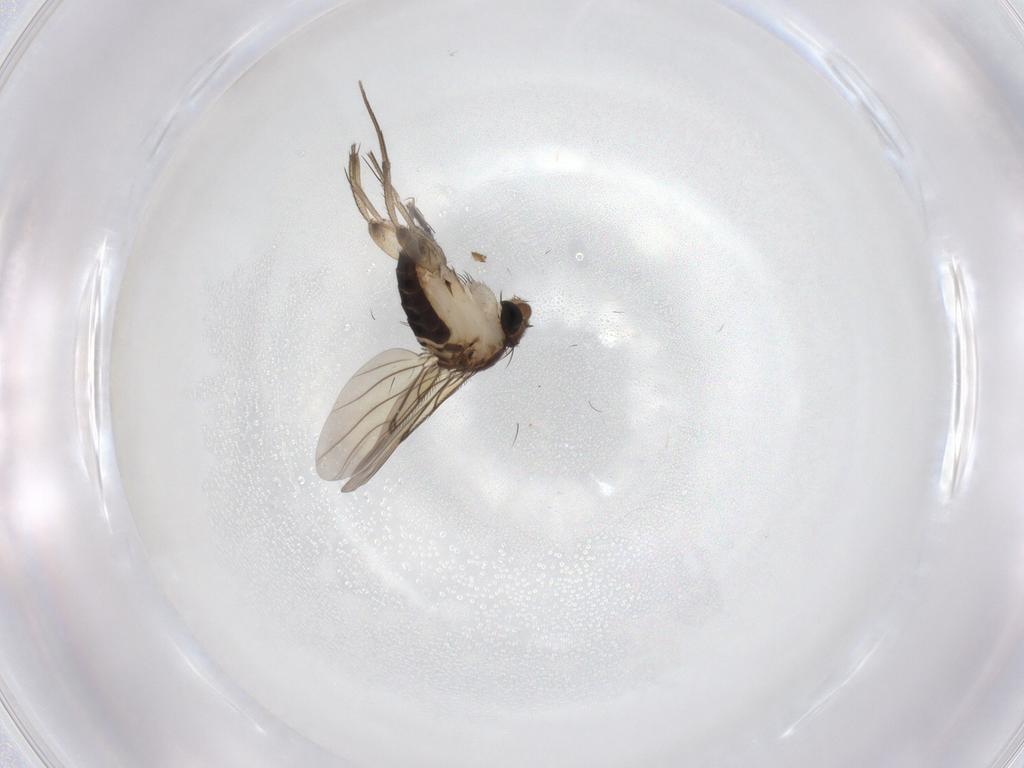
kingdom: Animalia
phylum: Arthropoda
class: Insecta
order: Diptera
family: Psychodidae
